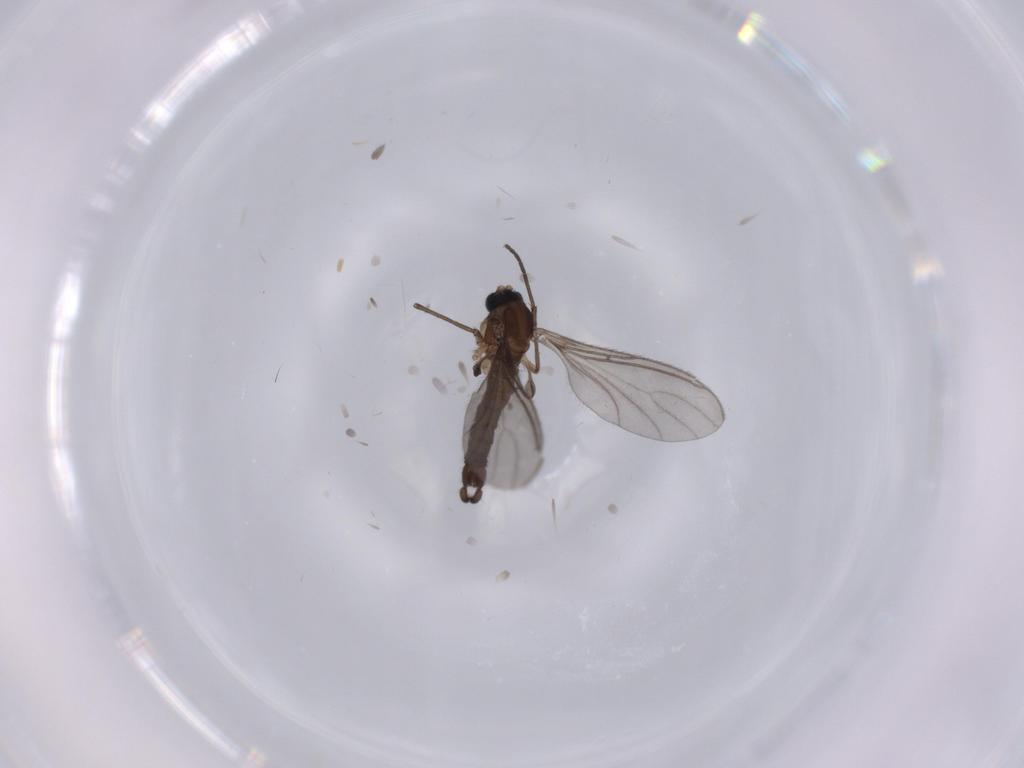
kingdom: Animalia
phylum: Arthropoda
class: Insecta
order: Diptera
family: Sciaridae
